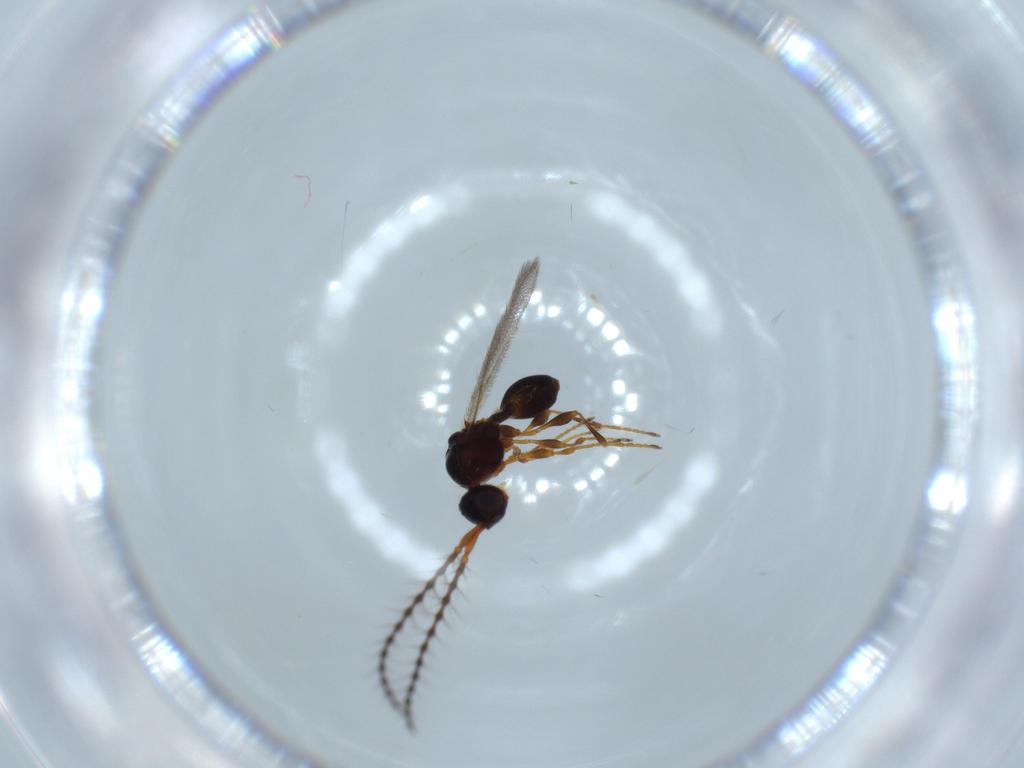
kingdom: Animalia
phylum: Arthropoda
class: Insecta
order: Hymenoptera
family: Diapriidae
